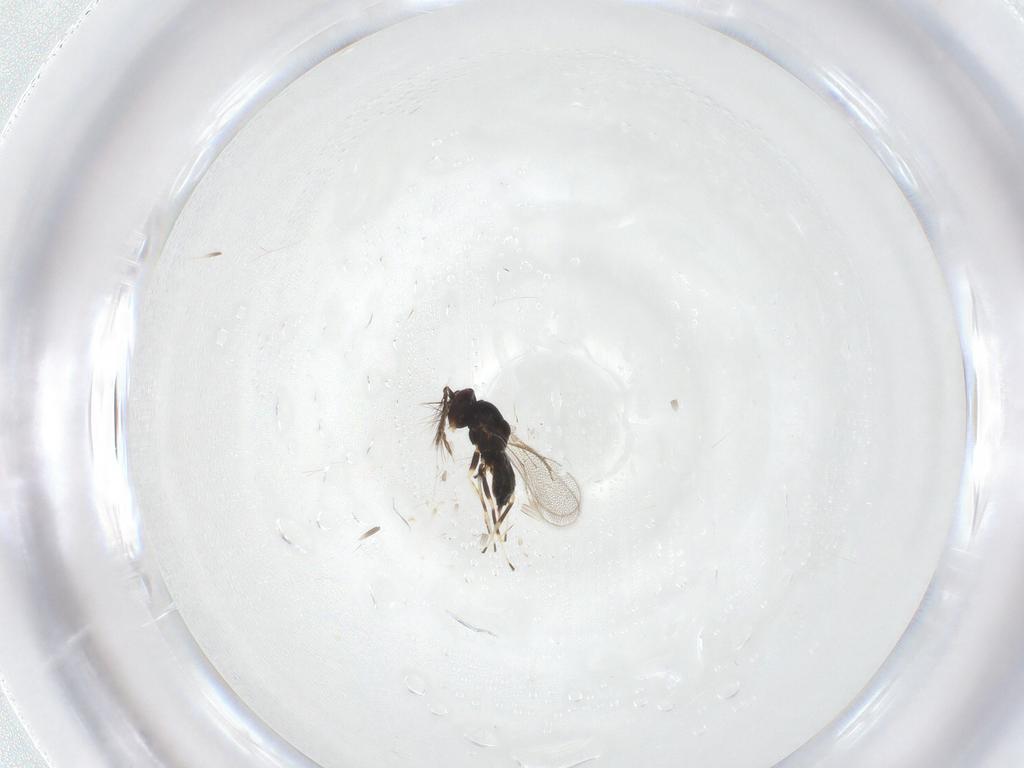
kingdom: Animalia
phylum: Arthropoda
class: Insecta
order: Hymenoptera
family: Eulophidae
